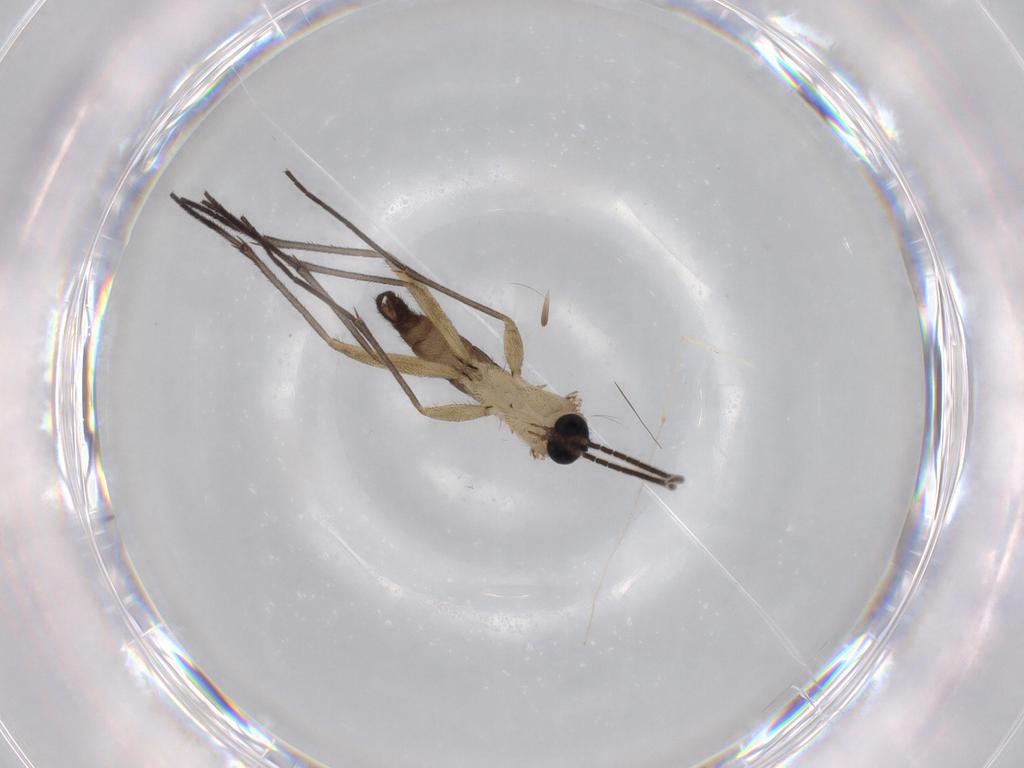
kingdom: Animalia
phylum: Arthropoda
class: Insecta
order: Diptera
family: Sciaridae
